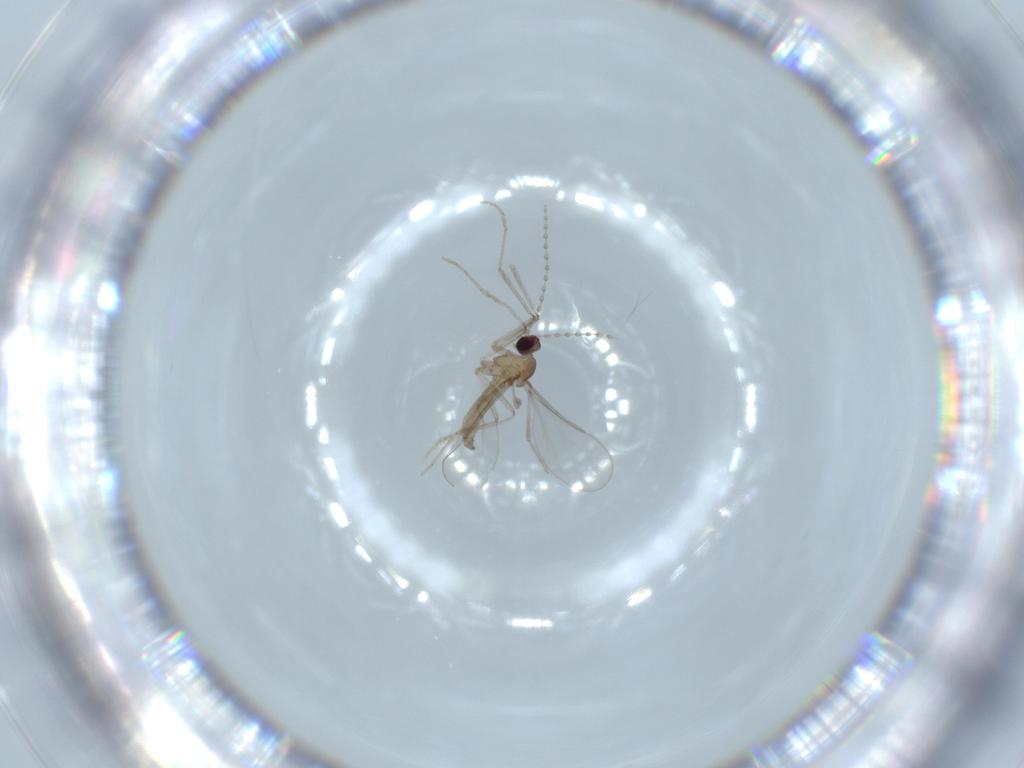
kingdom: Animalia
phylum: Arthropoda
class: Insecta
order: Diptera
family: Cecidomyiidae
